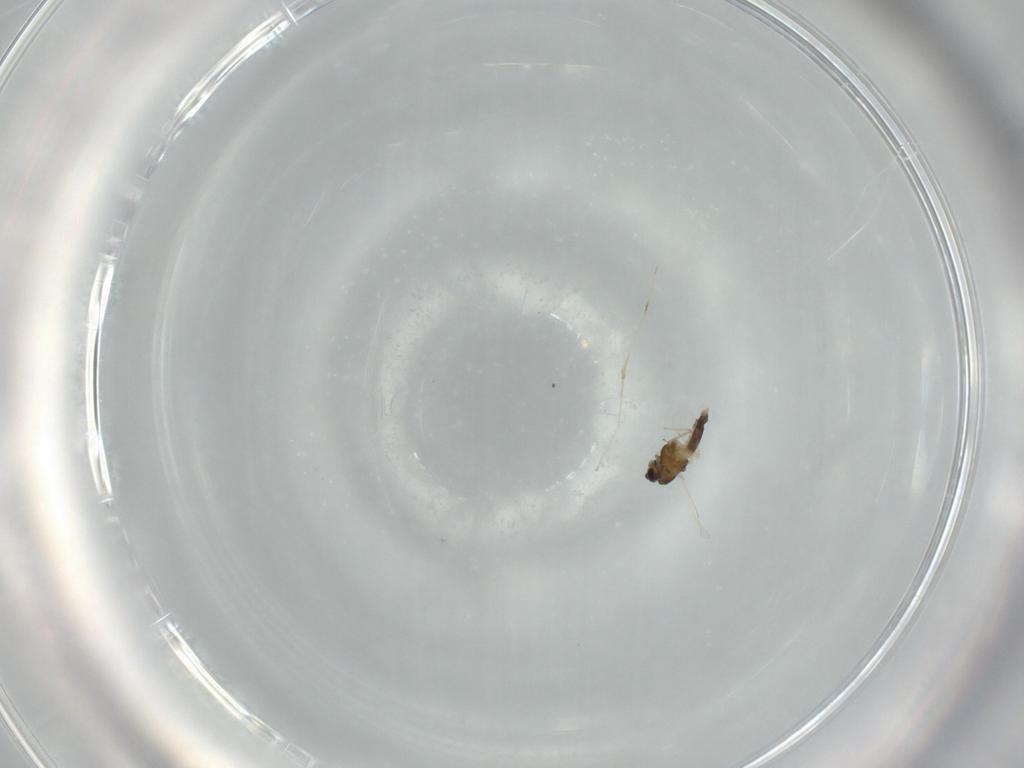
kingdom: Animalia
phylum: Arthropoda
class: Insecta
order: Diptera
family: Chironomidae
